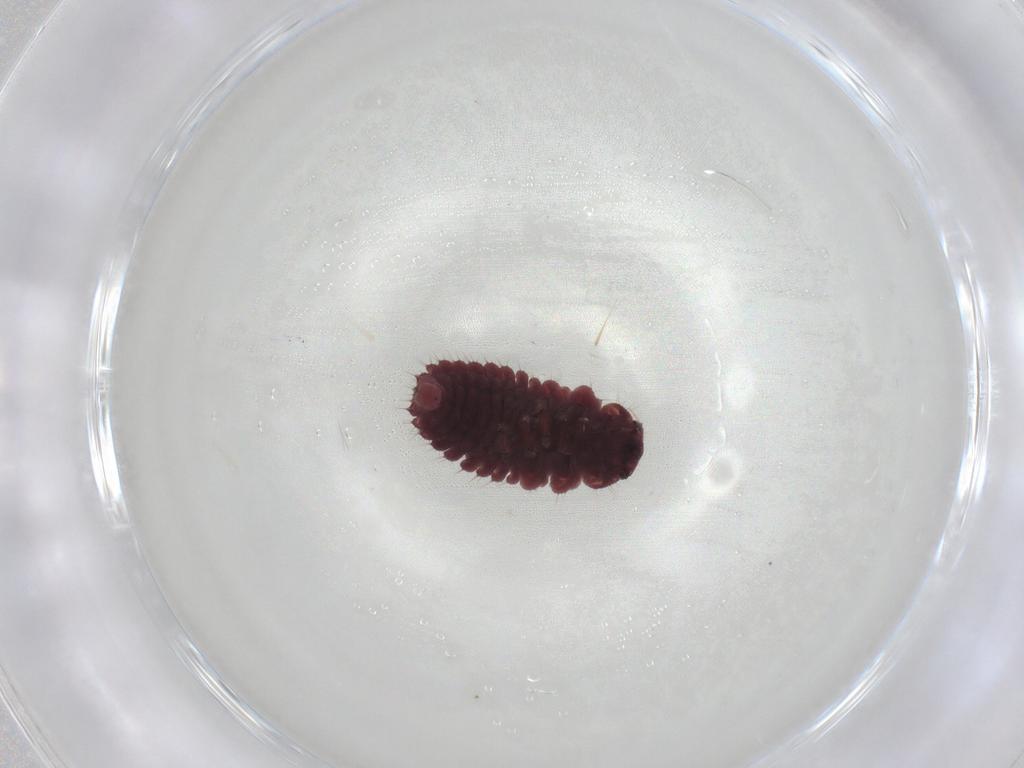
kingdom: Animalia
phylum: Arthropoda
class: Insecta
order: Coleoptera
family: Coccinellidae
